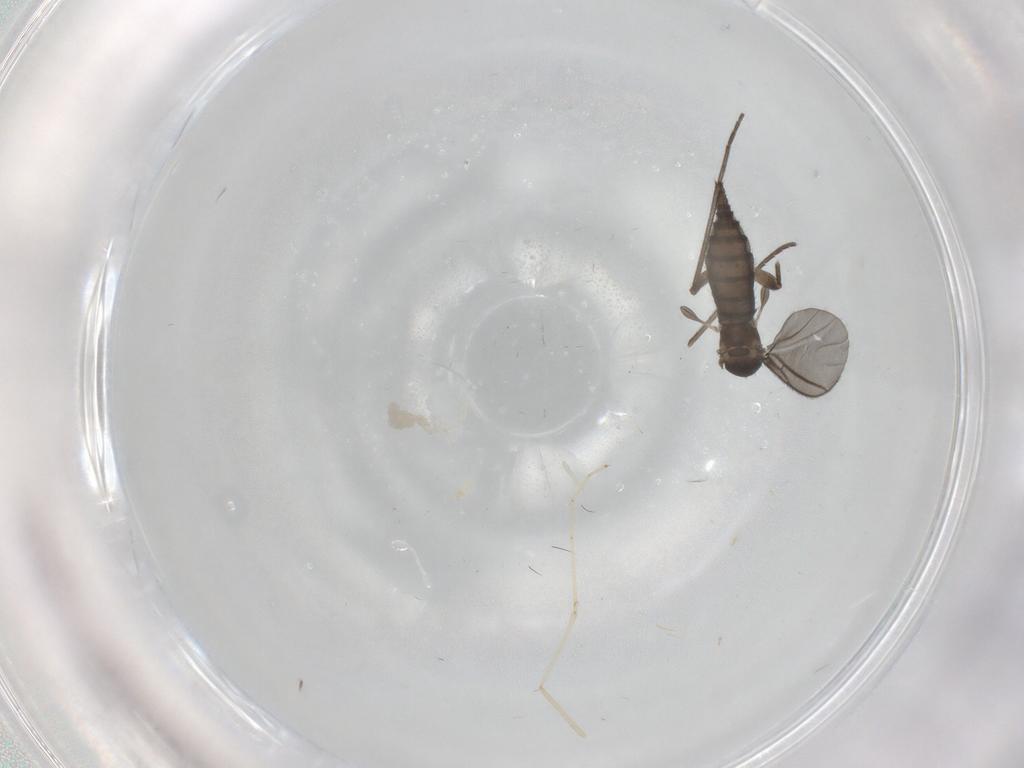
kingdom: Animalia
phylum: Arthropoda
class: Insecta
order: Diptera
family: Sciaridae
